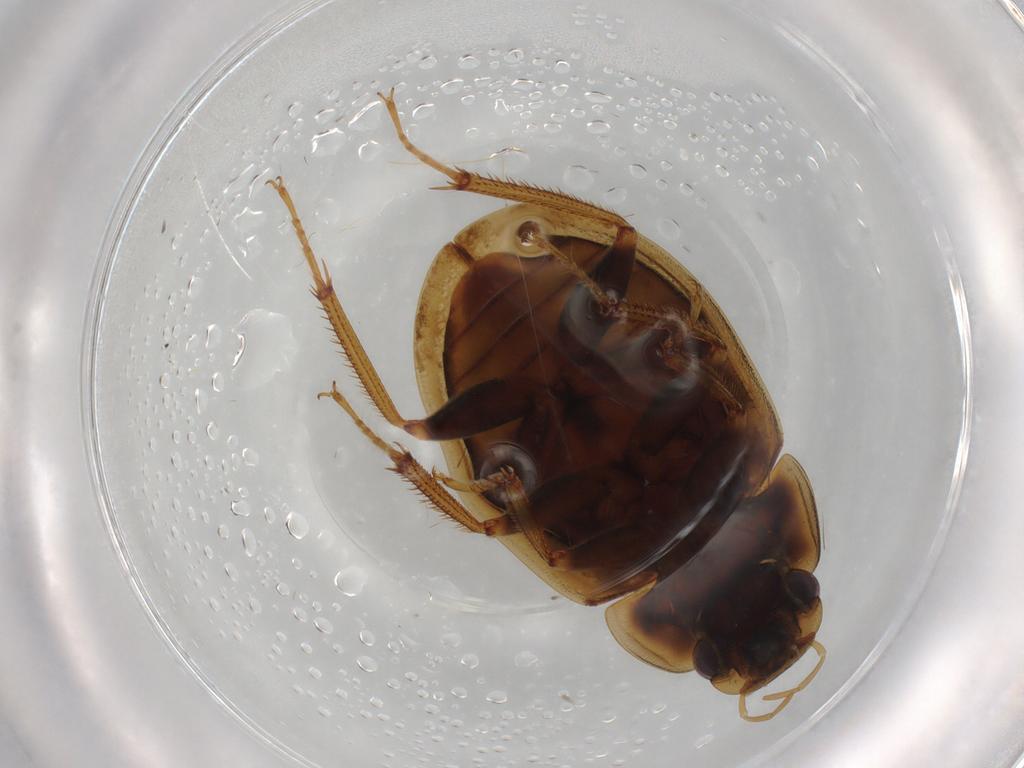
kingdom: Animalia
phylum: Arthropoda
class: Insecta
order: Coleoptera
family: Hydrophilidae
